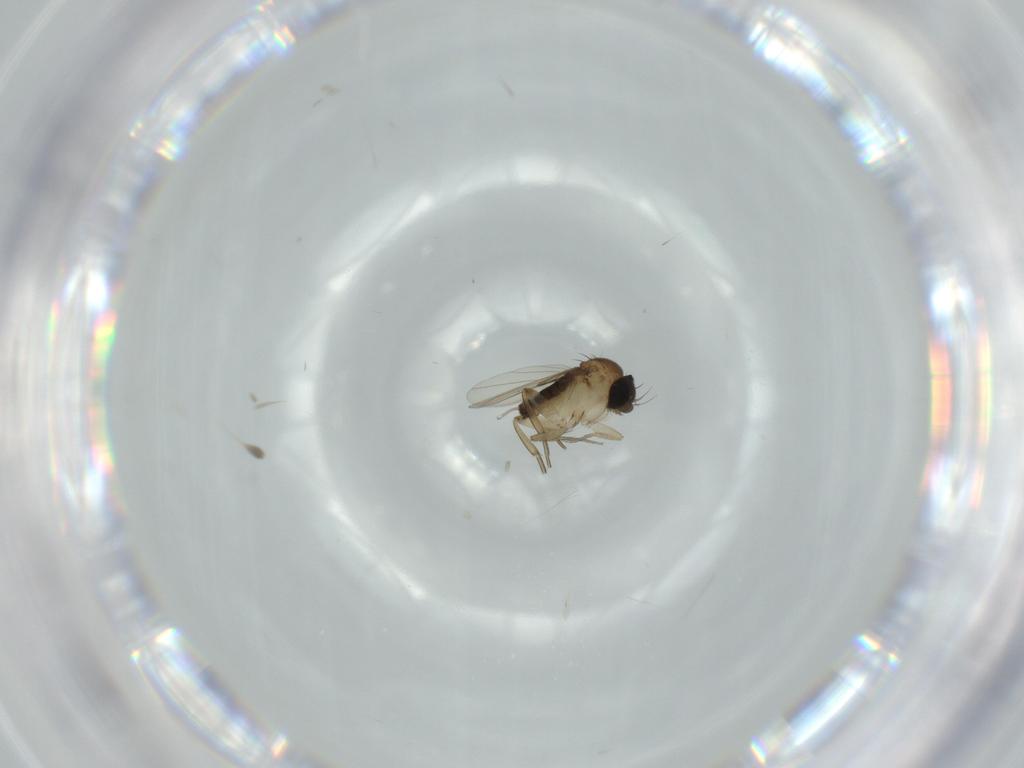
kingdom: Animalia
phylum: Arthropoda
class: Insecta
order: Diptera
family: Phoridae
